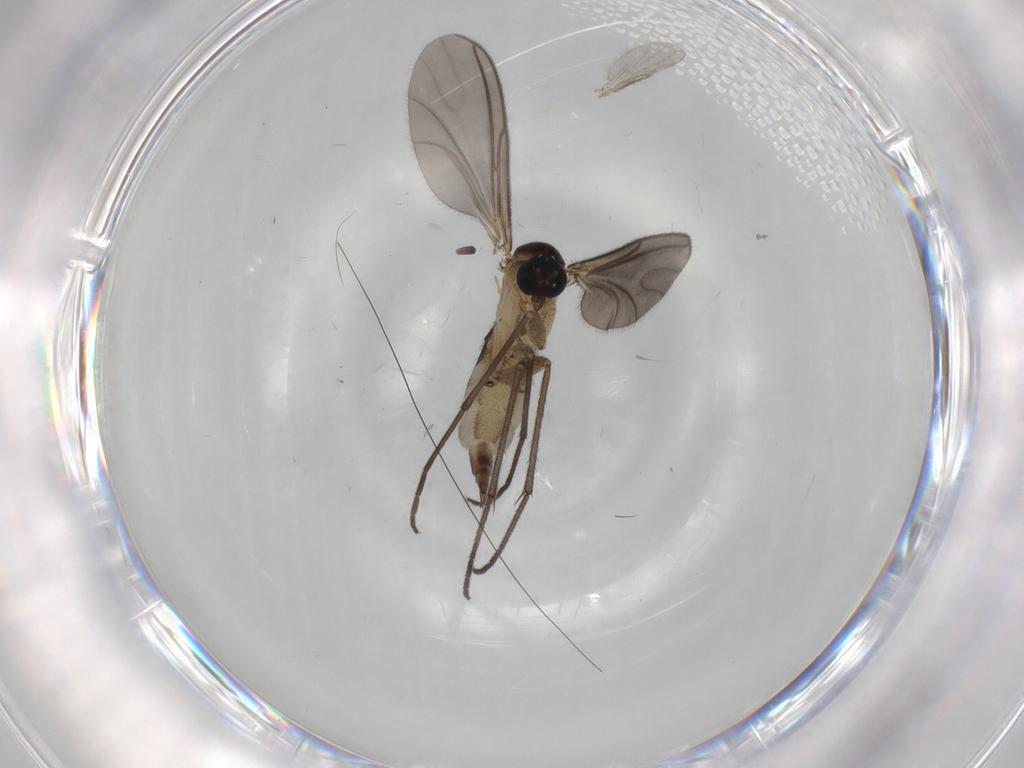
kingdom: Animalia
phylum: Arthropoda
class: Insecta
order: Diptera
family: Sciaridae
